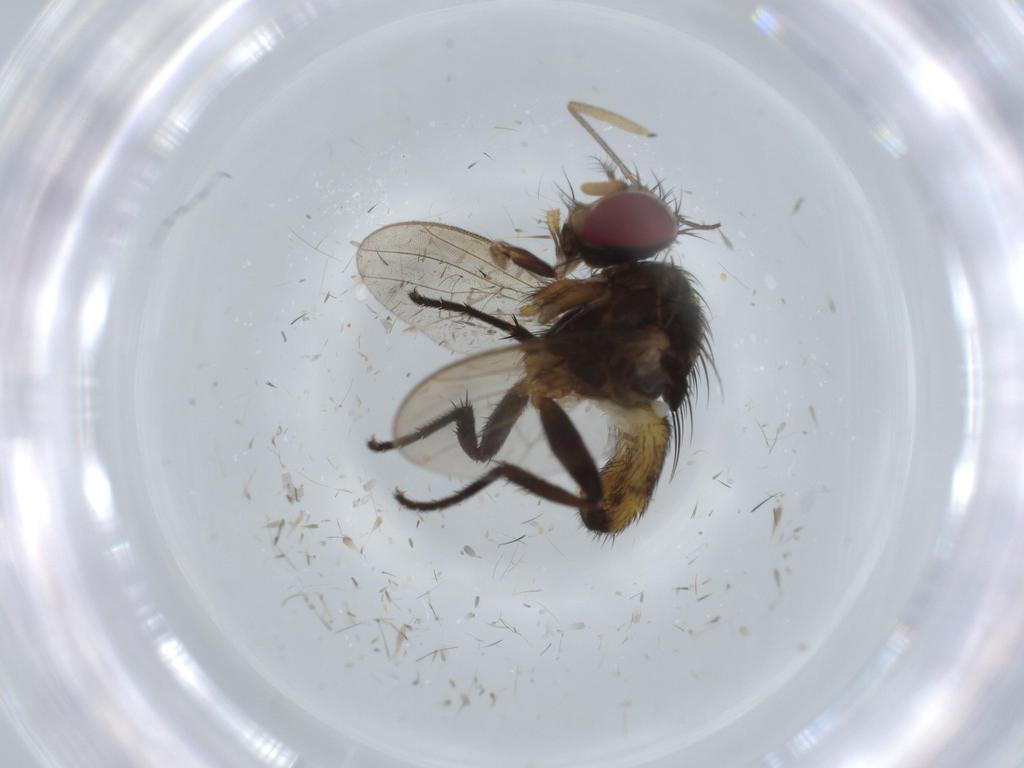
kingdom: Animalia
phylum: Arthropoda
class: Insecta
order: Diptera
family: Anthomyiidae
